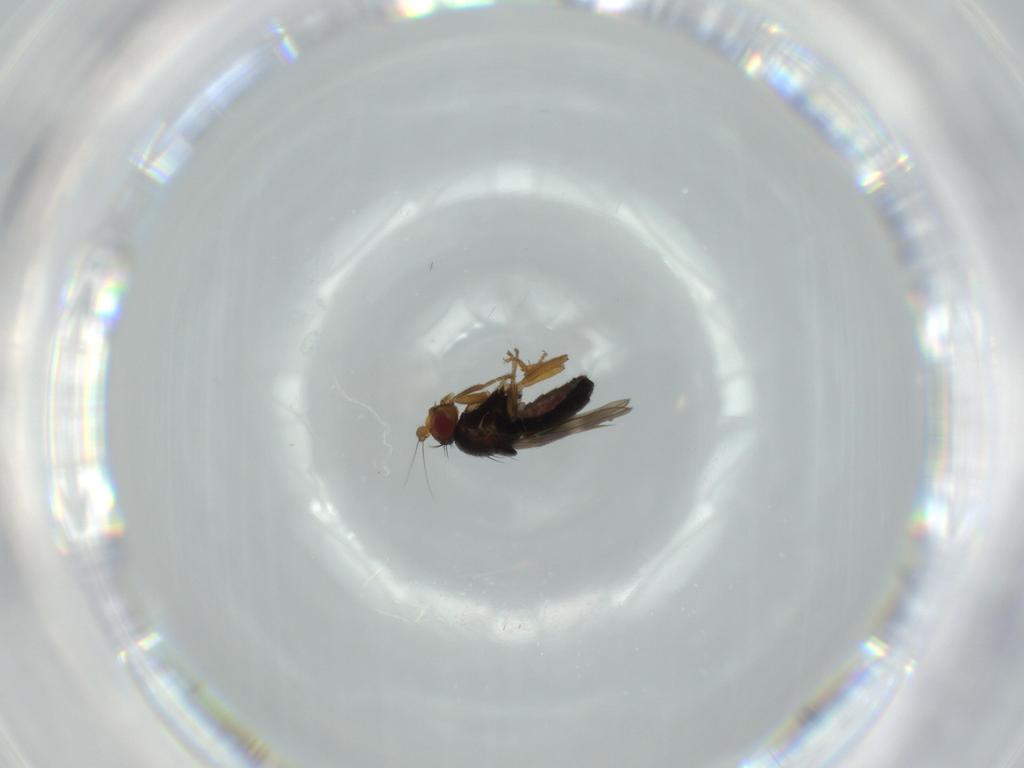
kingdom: Animalia
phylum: Arthropoda
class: Insecta
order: Diptera
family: Sphaeroceridae
